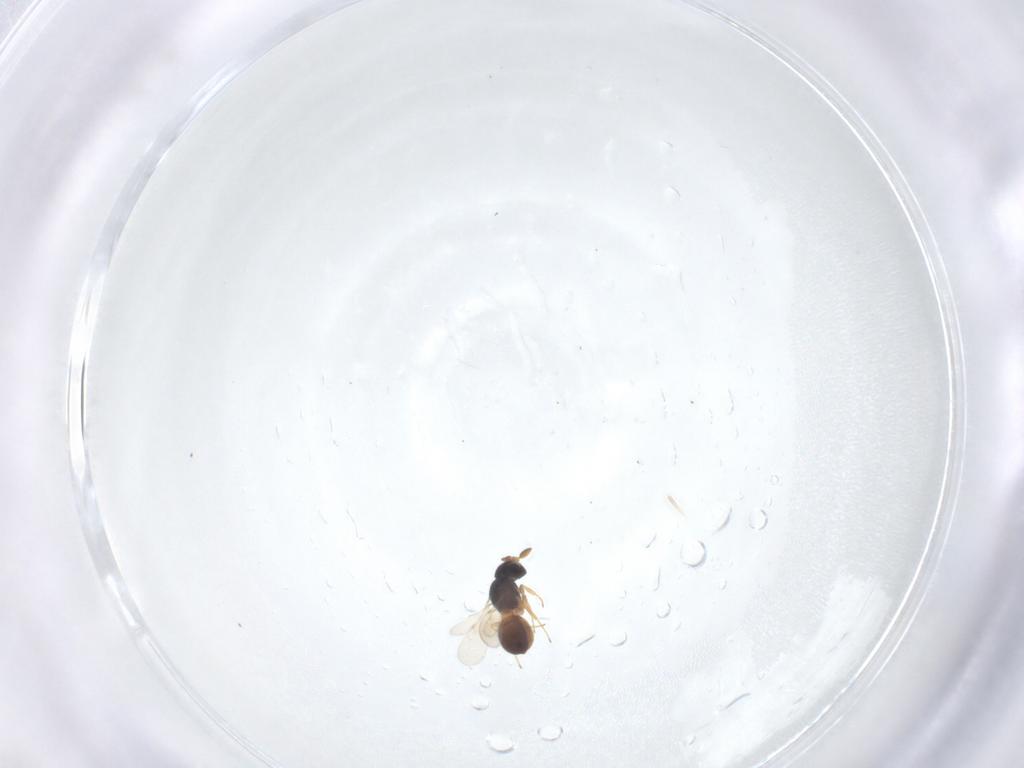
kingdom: Animalia
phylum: Arthropoda
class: Insecta
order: Hymenoptera
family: Scelionidae
